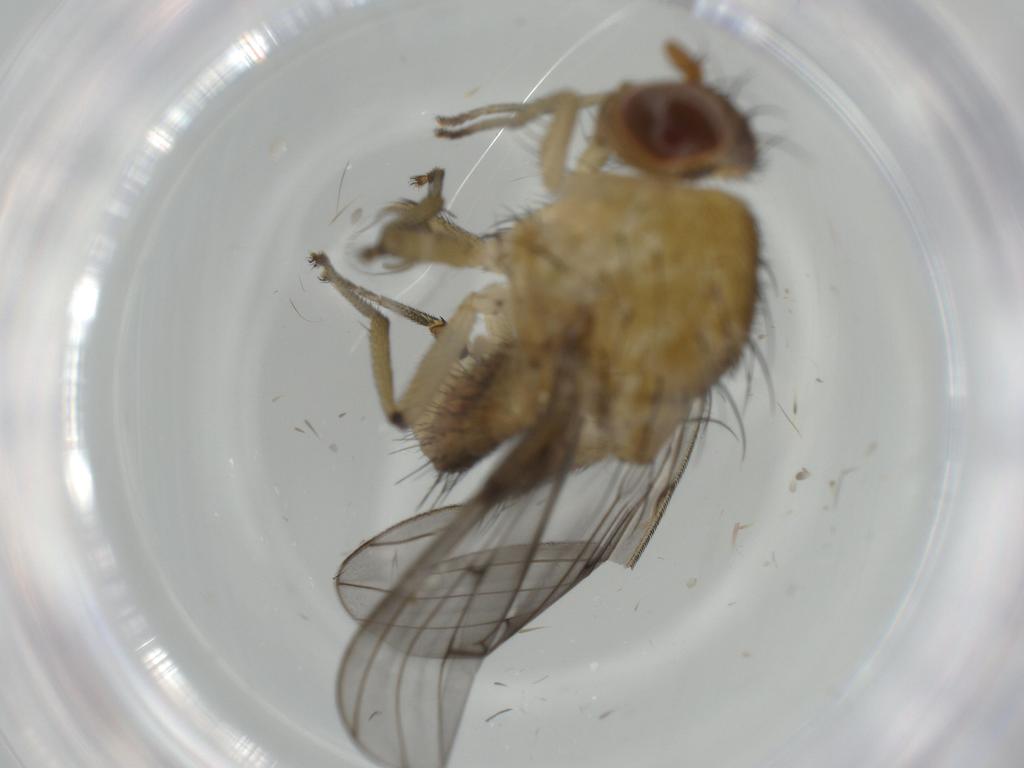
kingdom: Animalia
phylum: Arthropoda
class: Insecta
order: Diptera
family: Lauxaniidae
